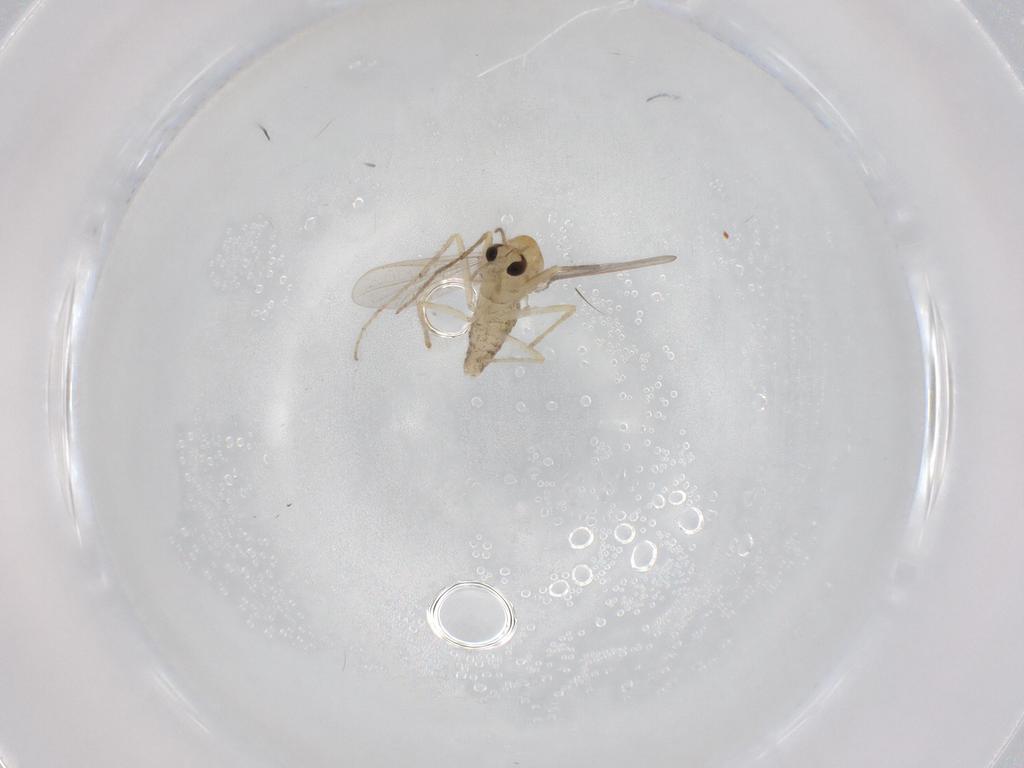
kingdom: Animalia
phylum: Arthropoda
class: Insecta
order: Diptera
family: Chironomidae
